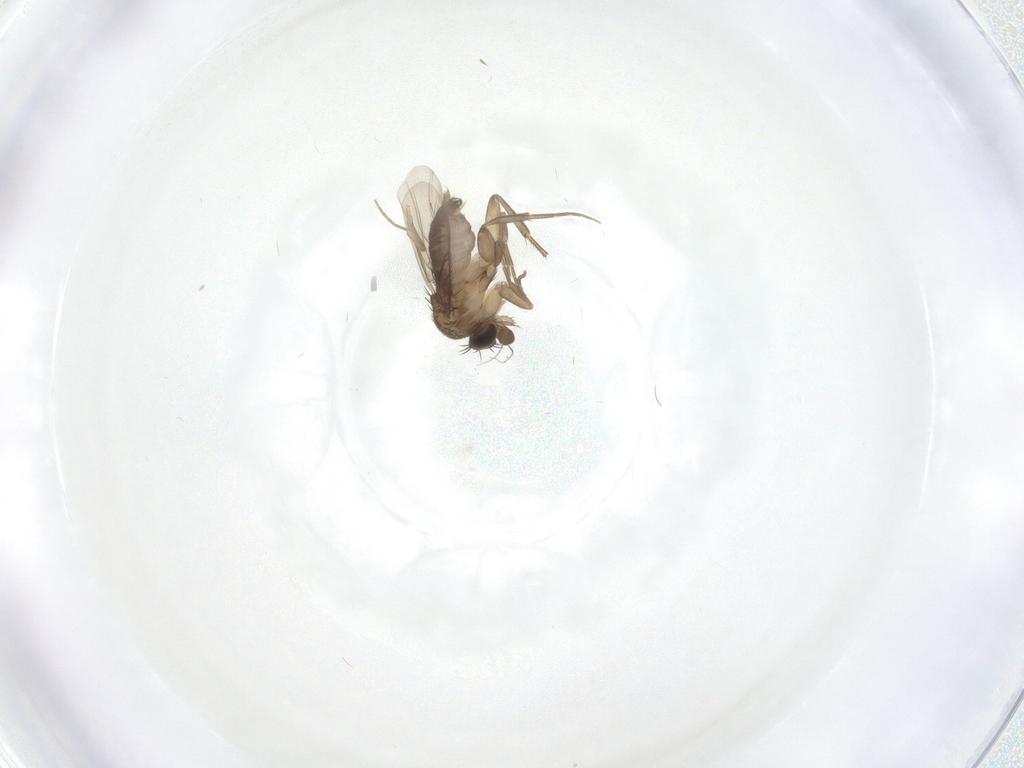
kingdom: Animalia
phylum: Arthropoda
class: Insecta
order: Diptera
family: Phoridae
